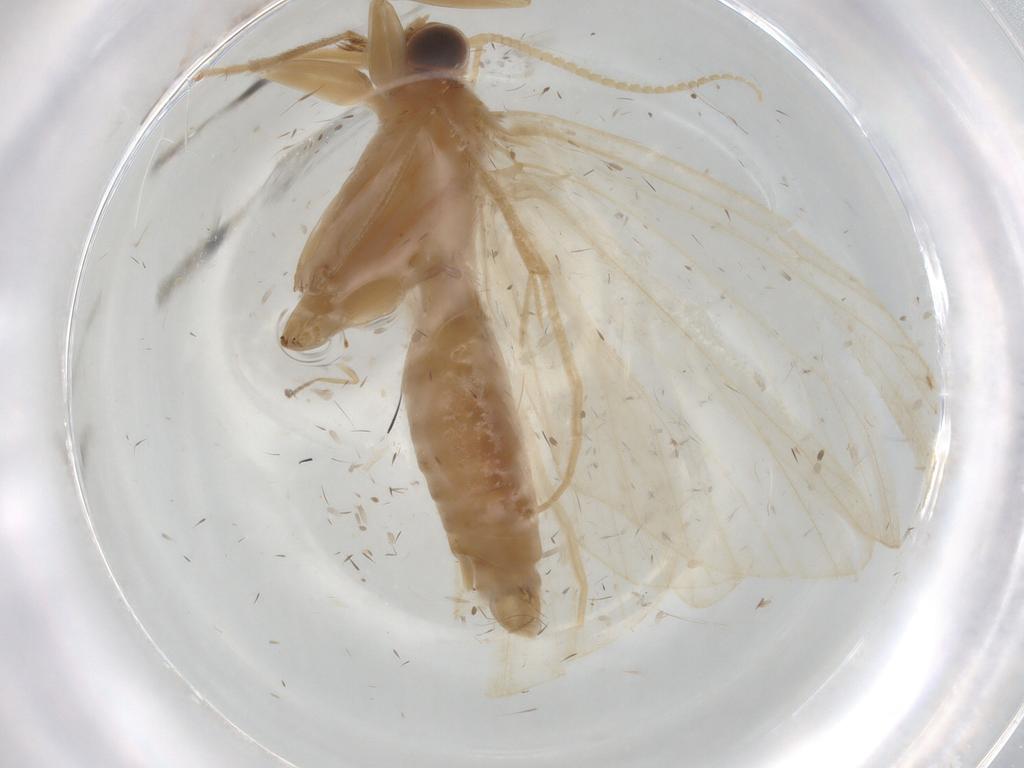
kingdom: Animalia
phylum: Arthropoda
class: Insecta
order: Lepidoptera
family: Crambidae
